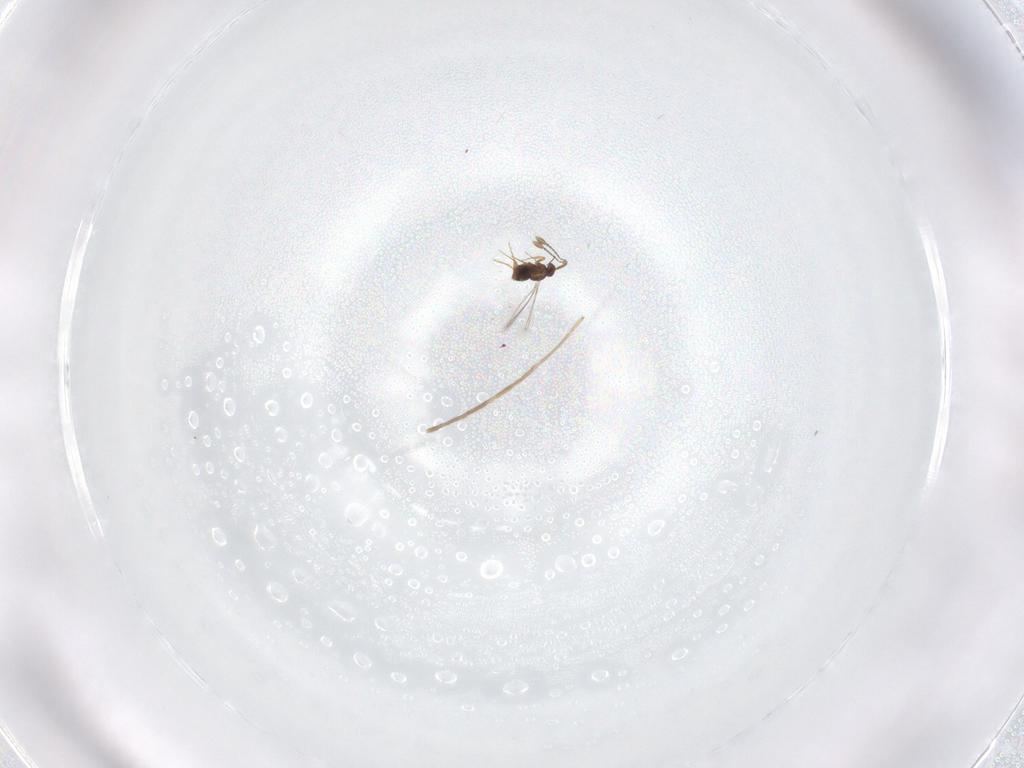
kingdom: Animalia
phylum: Arthropoda
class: Insecta
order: Hymenoptera
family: Mymaridae
